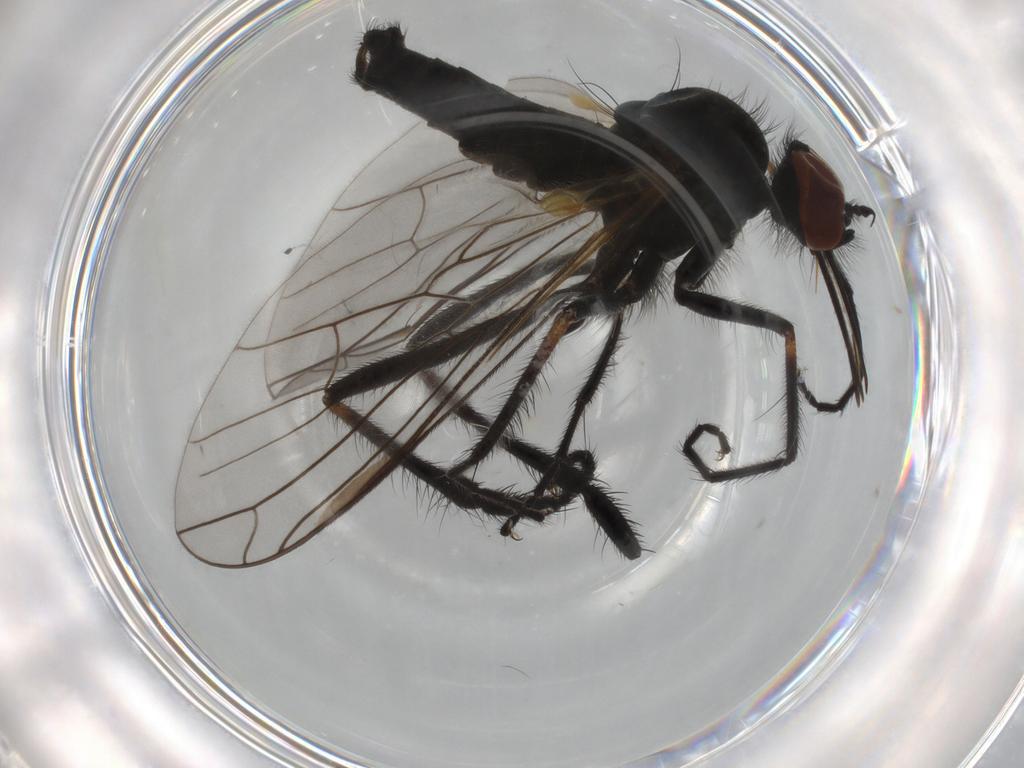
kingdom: Animalia
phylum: Arthropoda
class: Insecta
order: Diptera
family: Empididae
